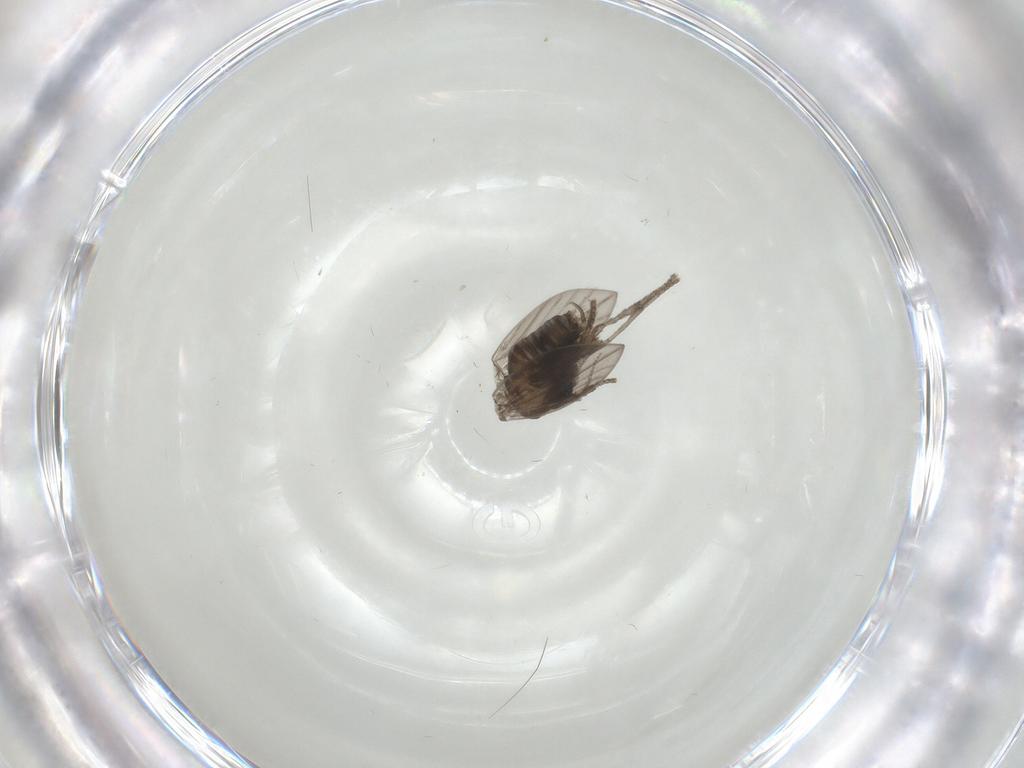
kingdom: Animalia
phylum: Arthropoda
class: Insecta
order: Diptera
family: Psychodidae
